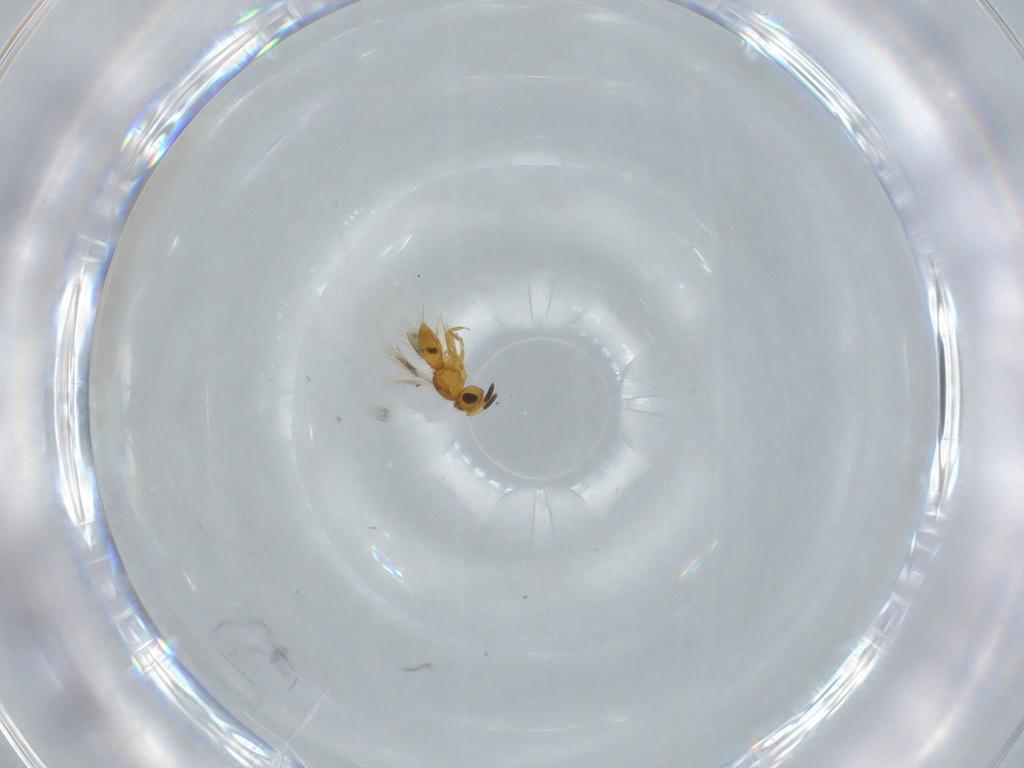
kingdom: Animalia
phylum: Arthropoda
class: Insecta
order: Hymenoptera
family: Scelionidae
